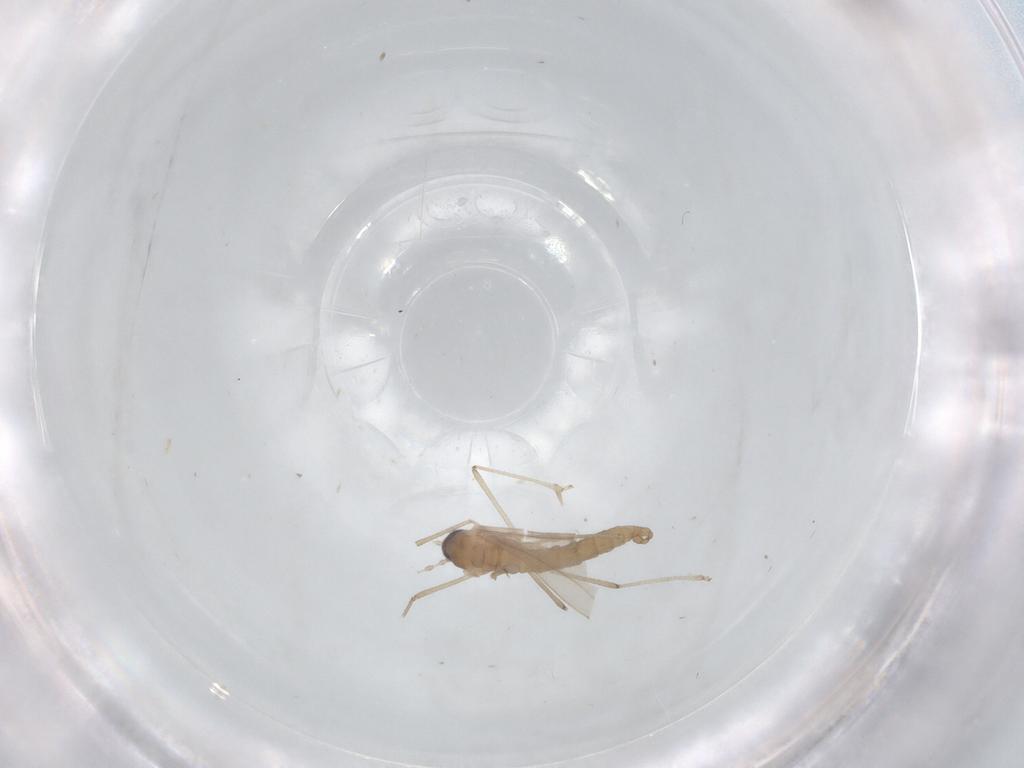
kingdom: Animalia
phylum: Arthropoda
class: Insecta
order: Diptera
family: Cecidomyiidae
